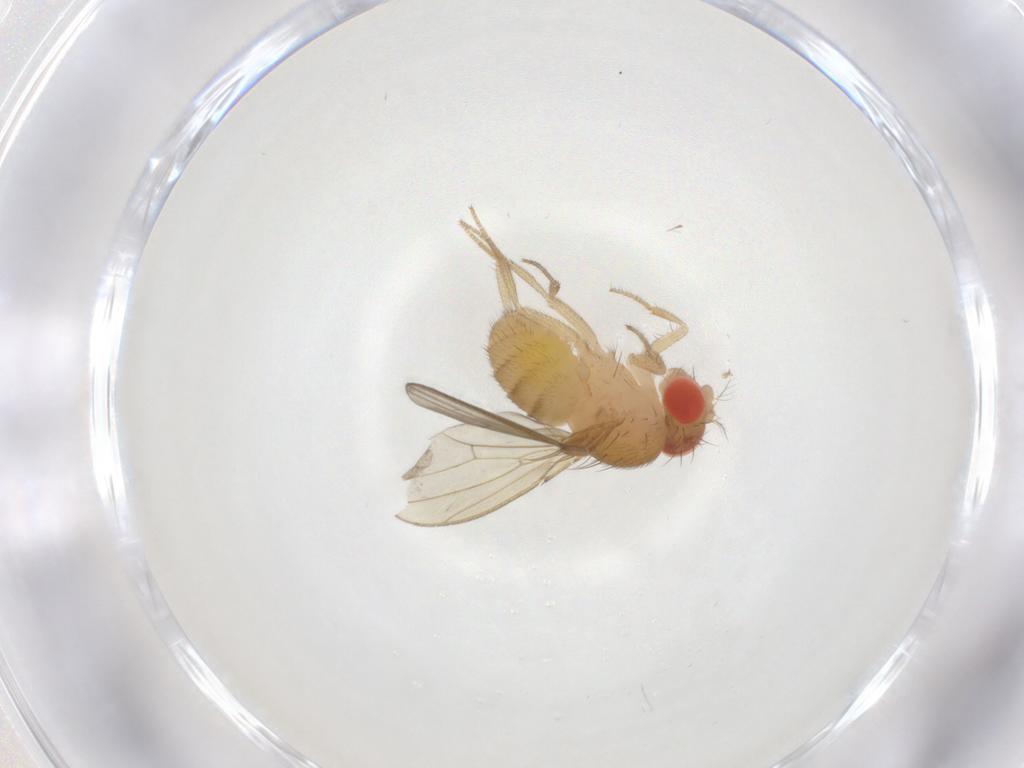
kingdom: Animalia
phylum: Arthropoda
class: Insecta
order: Diptera
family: Drosophilidae
